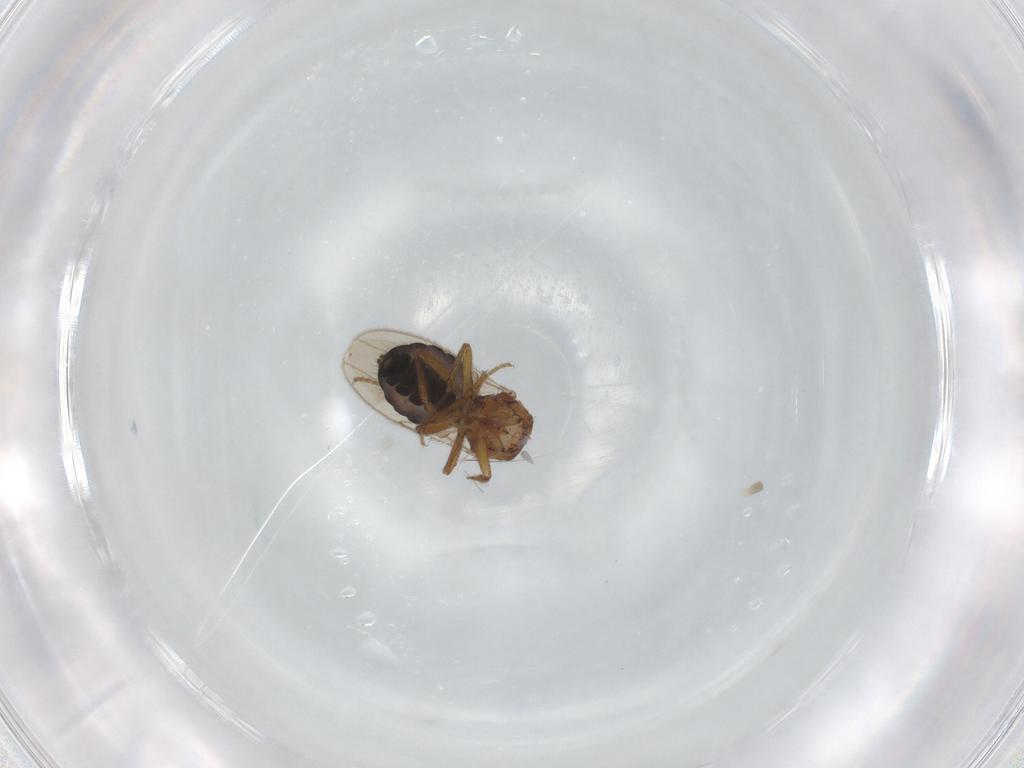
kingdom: Animalia
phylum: Arthropoda
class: Insecta
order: Diptera
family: Sphaeroceridae
